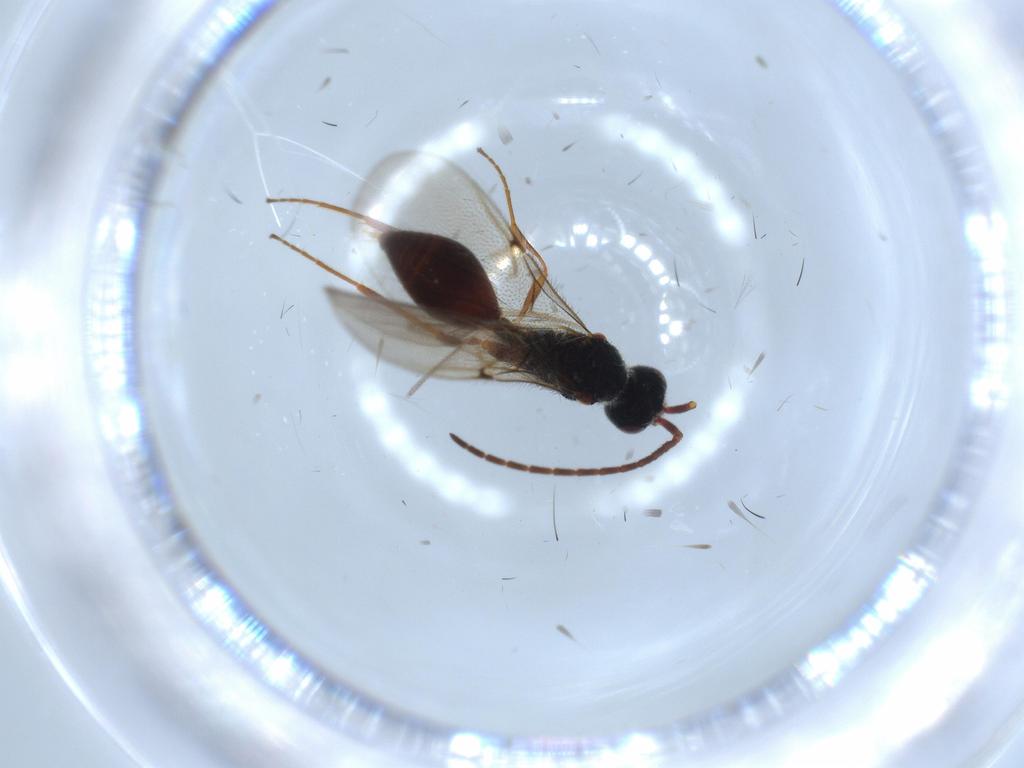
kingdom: Animalia
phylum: Arthropoda
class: Insecta
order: Hymenoptera
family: Diapriidae
